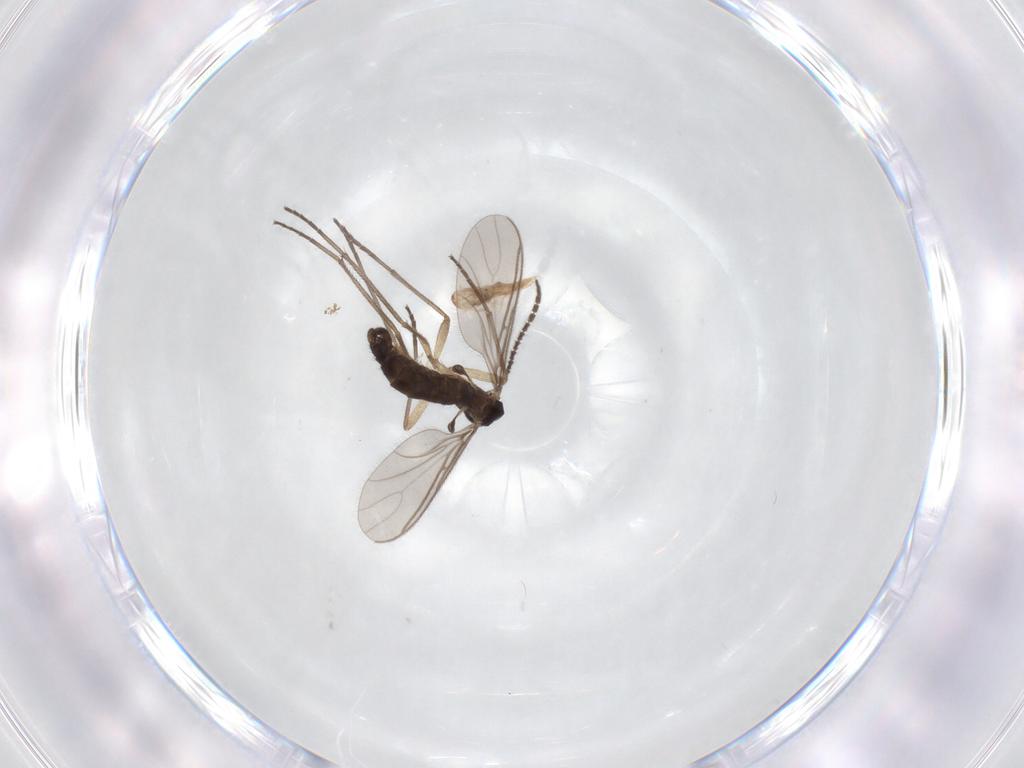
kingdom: Animalia
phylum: Arthropoda
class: Insecta
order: Diptera
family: Sciaridae
